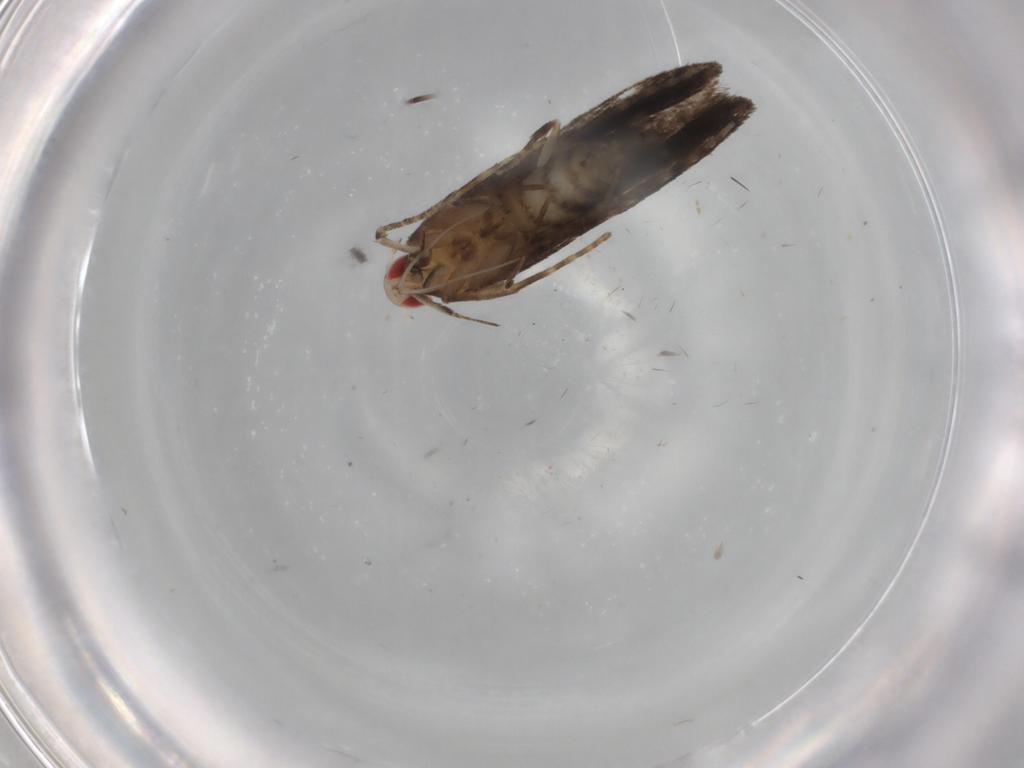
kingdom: Animalia
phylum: Arthropoda
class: Insecta
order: Lepidoptera
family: Gelechiidae
